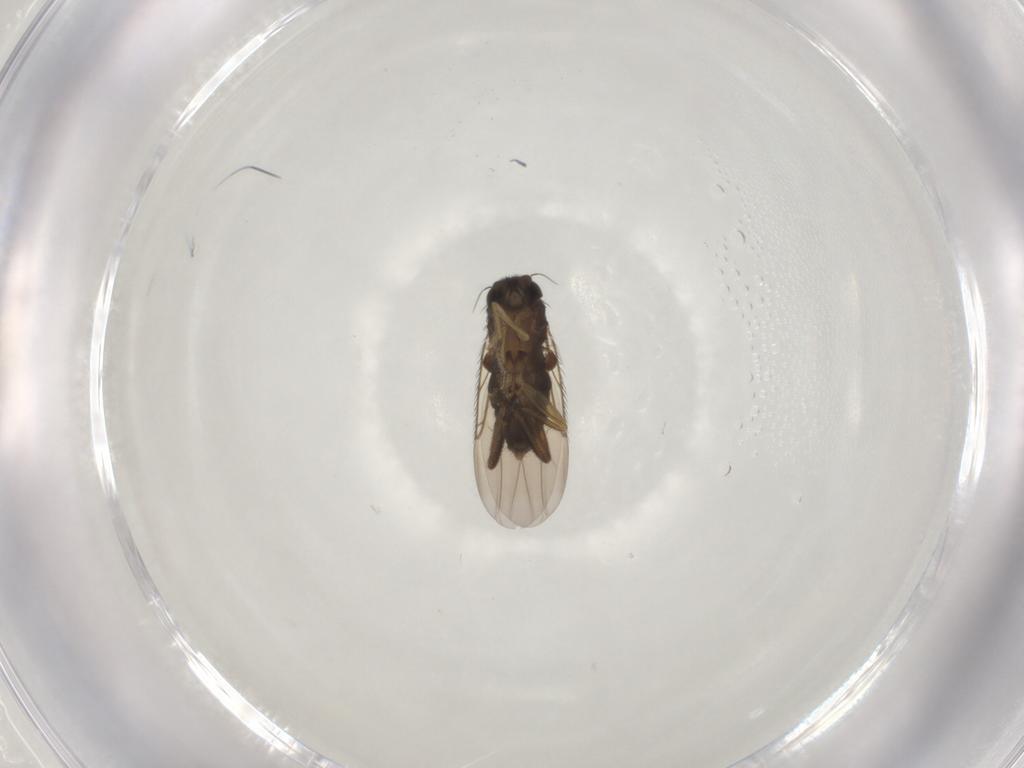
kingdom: Animalia
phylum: Arthropoda
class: Insecta
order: Diptera
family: Phoridae
